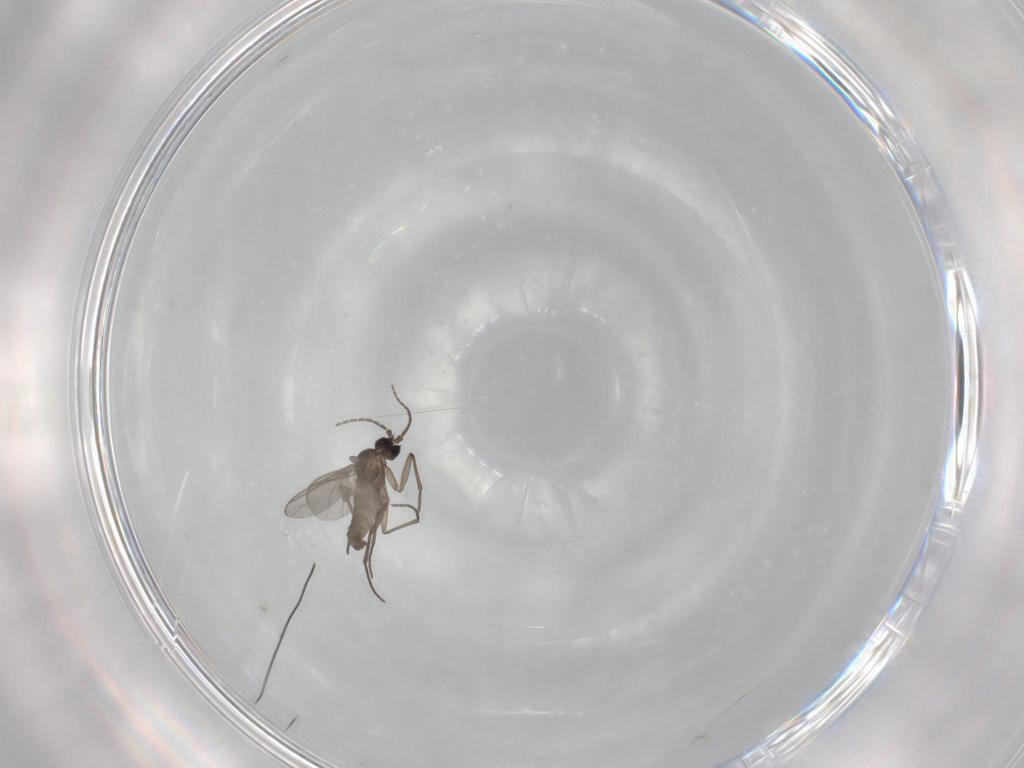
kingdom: Animalia
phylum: Arthropoda
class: Insecta
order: Diptera
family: Sciaridae
